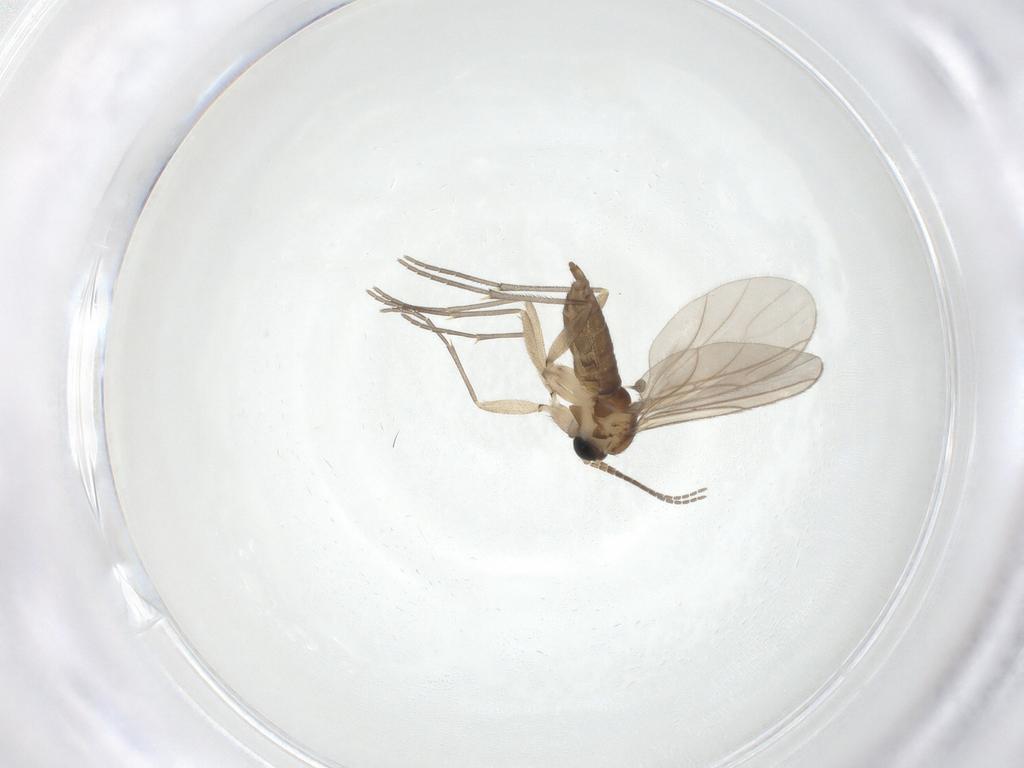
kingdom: Animalia
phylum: Arthropoda
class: Insecta
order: Diptera
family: Sciaridae
